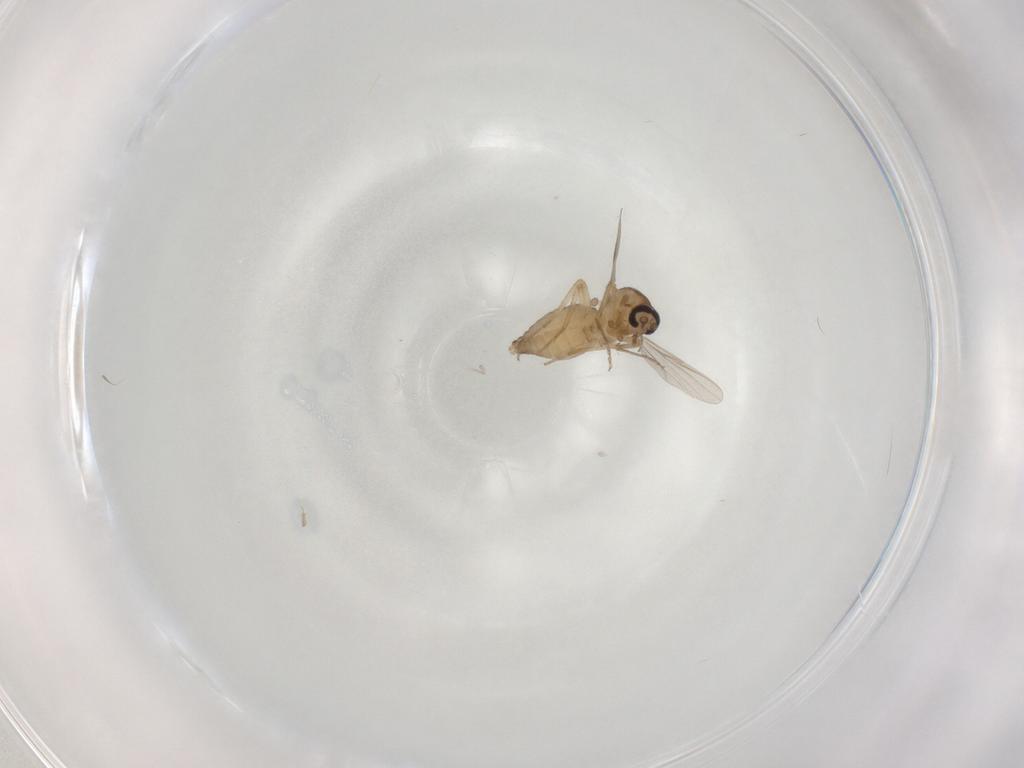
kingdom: Animalia
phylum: Arthropoda
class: Insecta
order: Diptera
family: Ceratopogonidae
